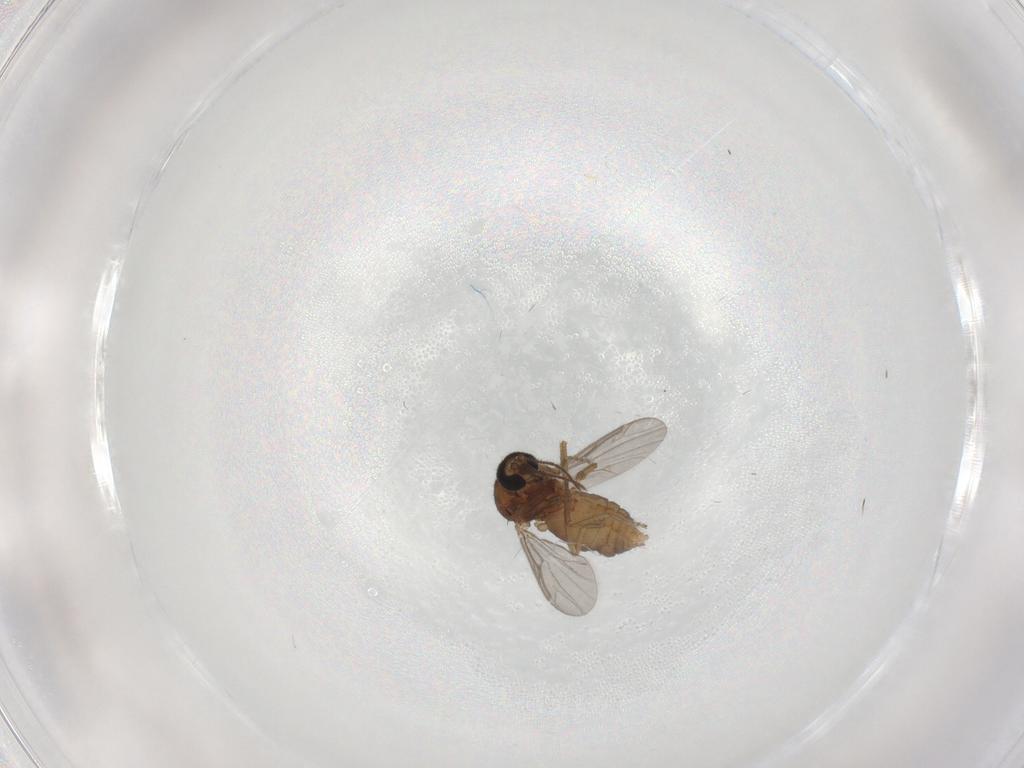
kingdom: Animalia
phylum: Arthropoda
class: Insecta
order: Diptera
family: Ceratopogonidae
